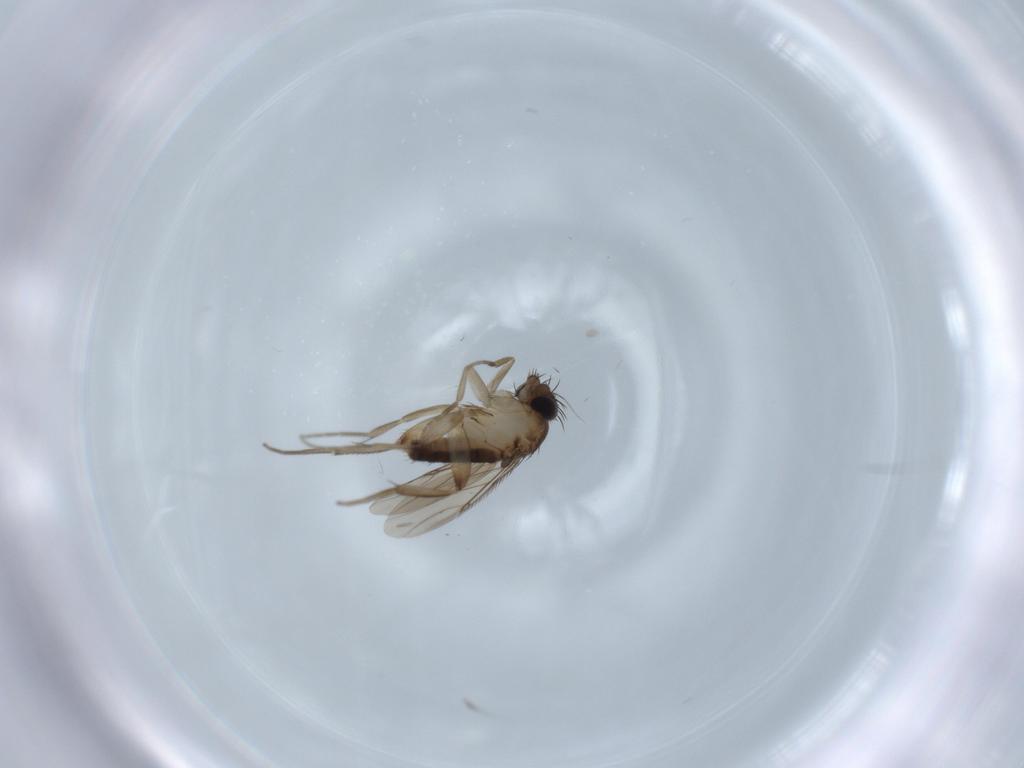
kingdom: Animalia
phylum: Arthropoda
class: Insecta
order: Diptera
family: Phoridae
